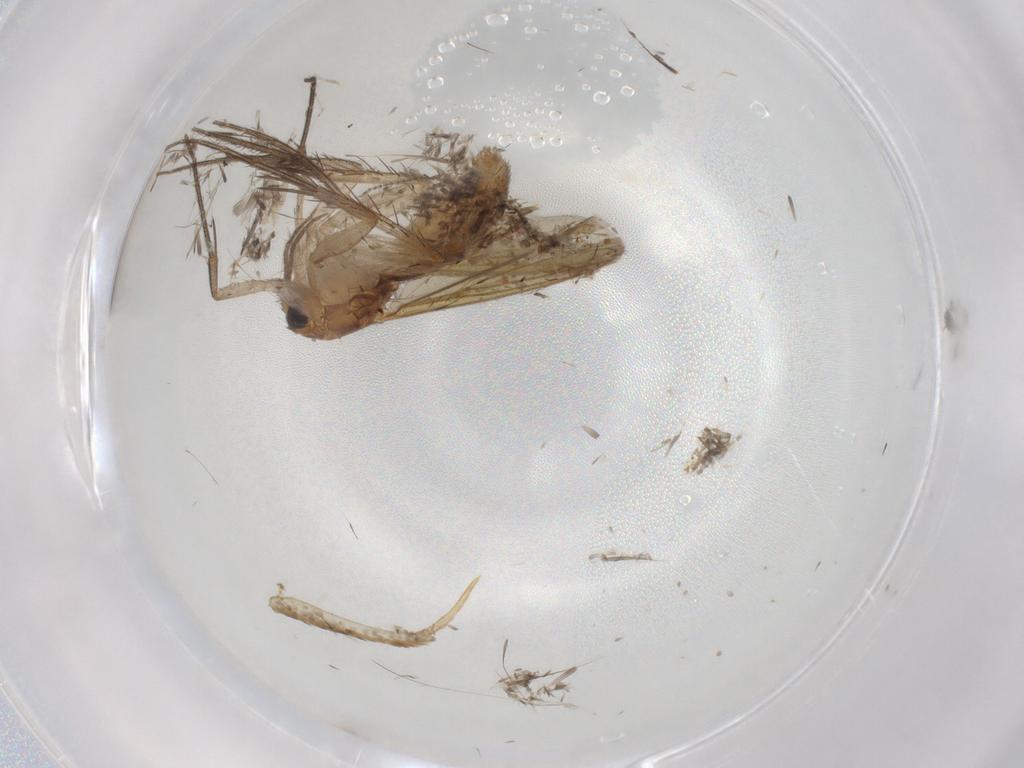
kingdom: Animalia
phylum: Arthropoda
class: Insecta
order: Diptera
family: Mycetophilidae
